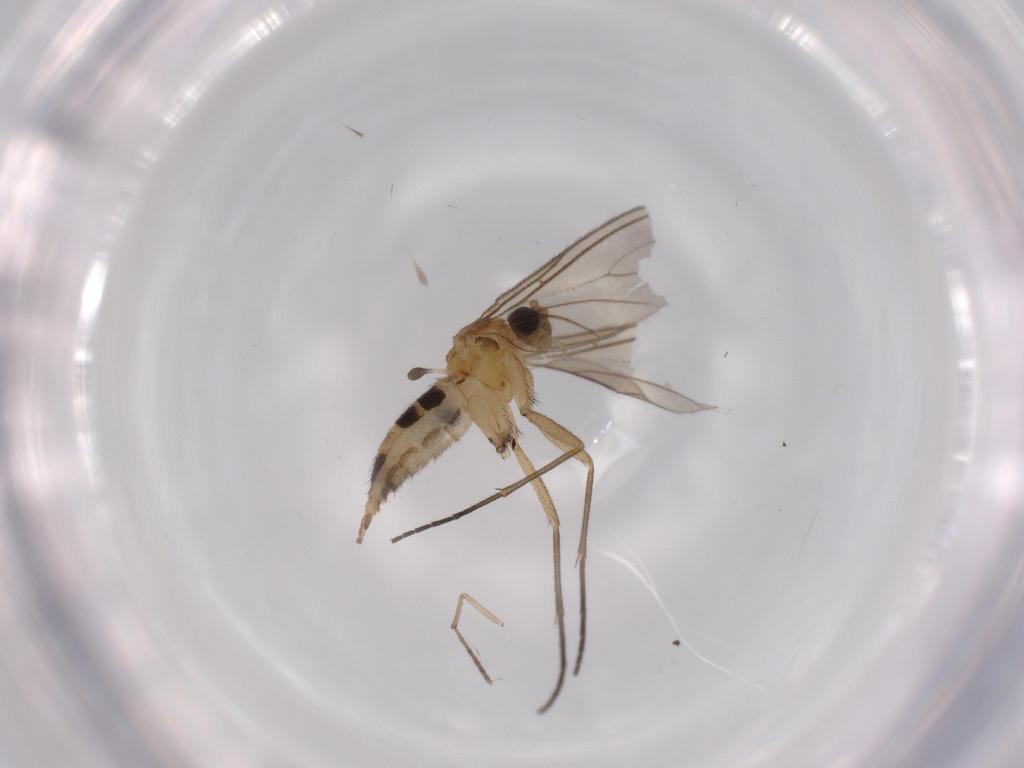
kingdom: Animalia
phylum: Arthropoda
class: Insecta
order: Diptera
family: Sciaridae
